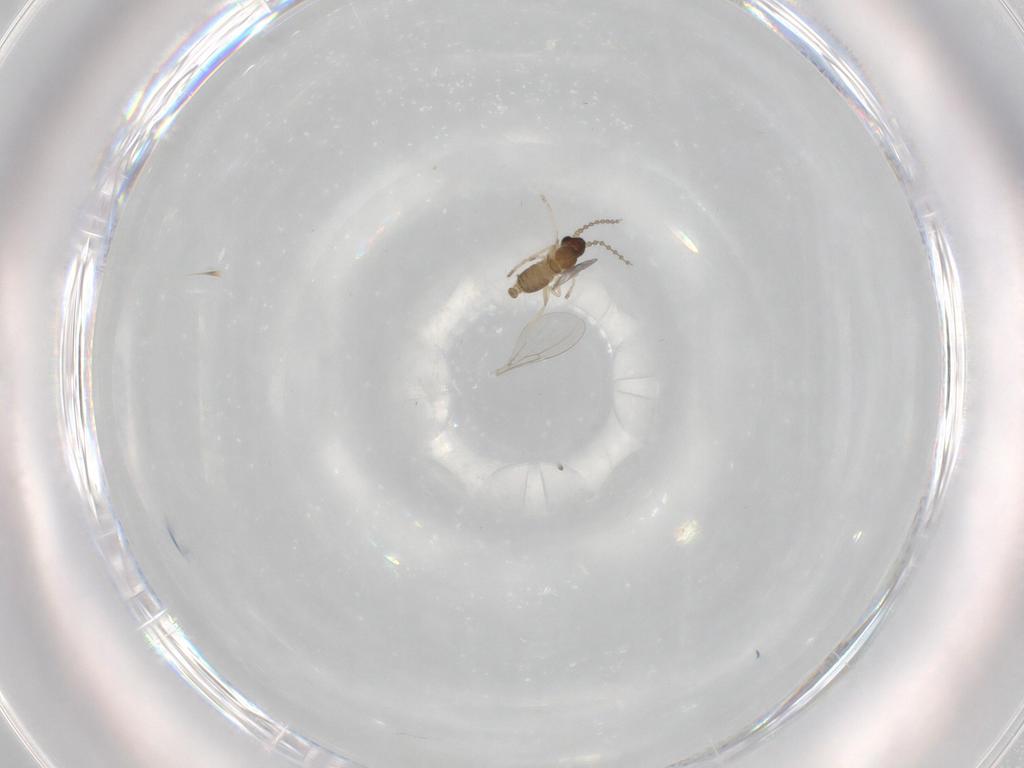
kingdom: Animalia
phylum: Arthropoda
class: Insecta
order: Diptera
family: Cecidomyiidae
